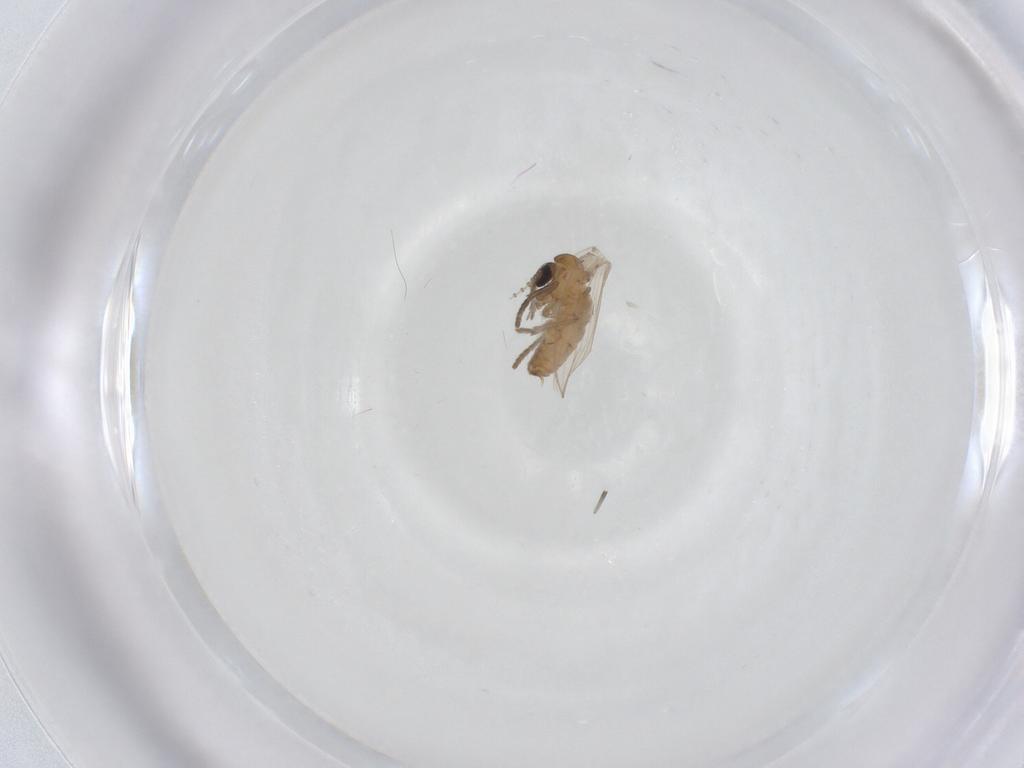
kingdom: Animalia
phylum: Arthropoda
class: Insecta
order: Diptera
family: Psychodidae
